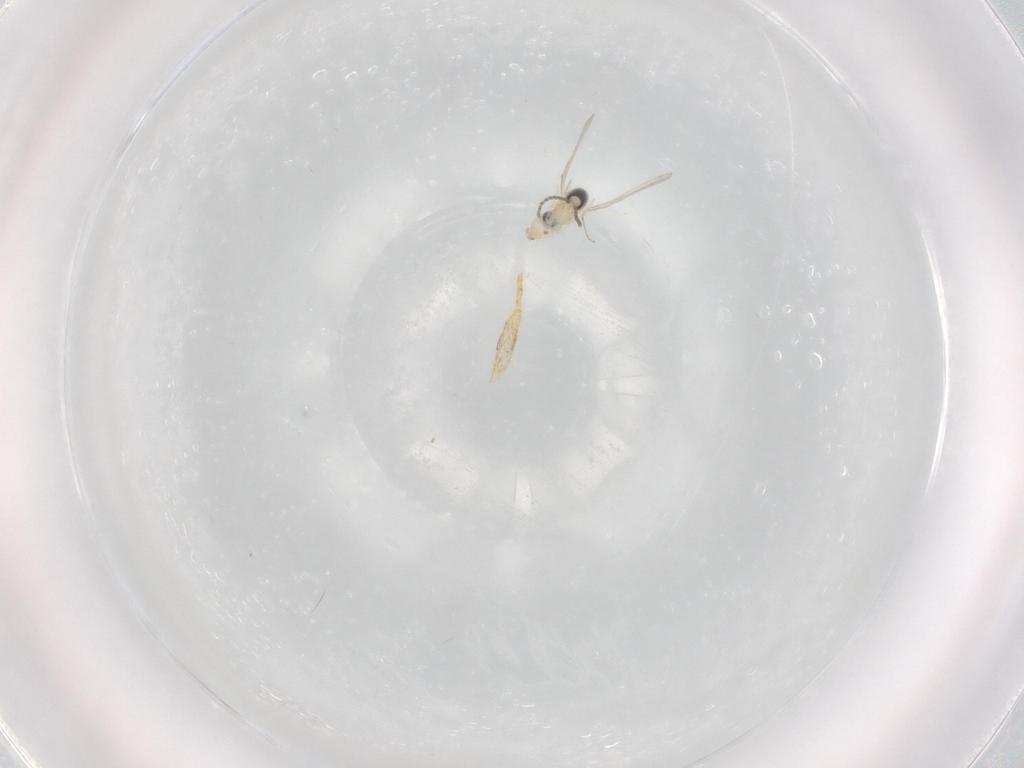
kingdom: Animalia
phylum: Arthropoda
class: Insecta
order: Diptera
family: Cecidomyiidae
